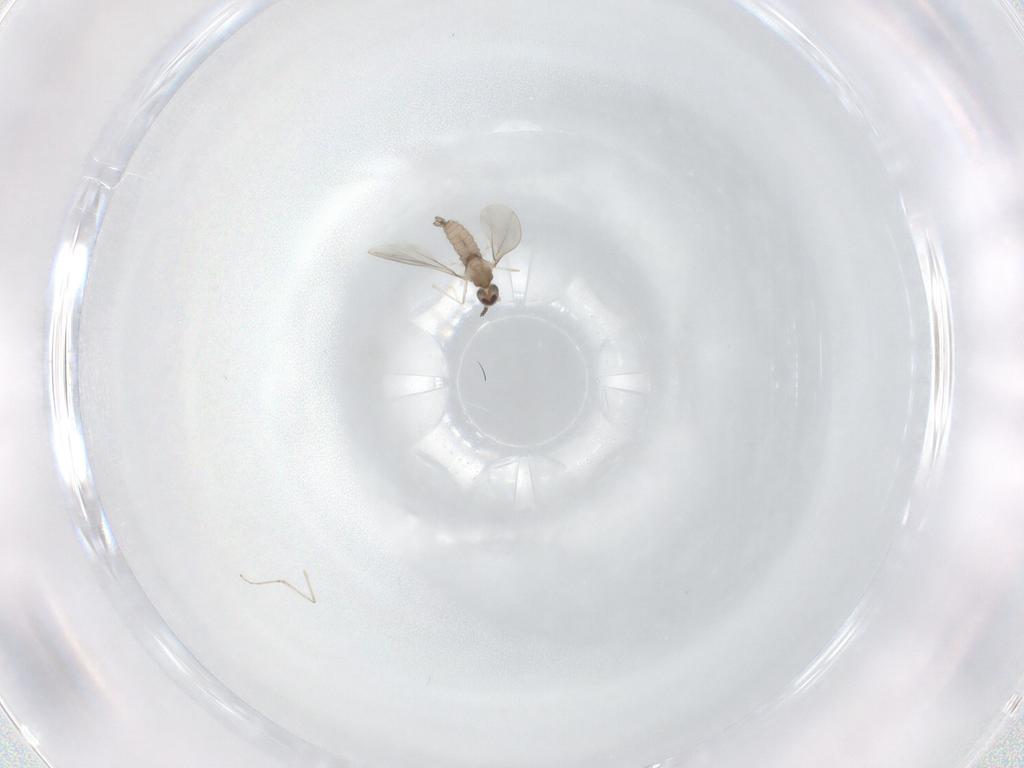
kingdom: Animalia
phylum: Arthropoda
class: Insecta
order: Diptera
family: Cecidomyiidae
